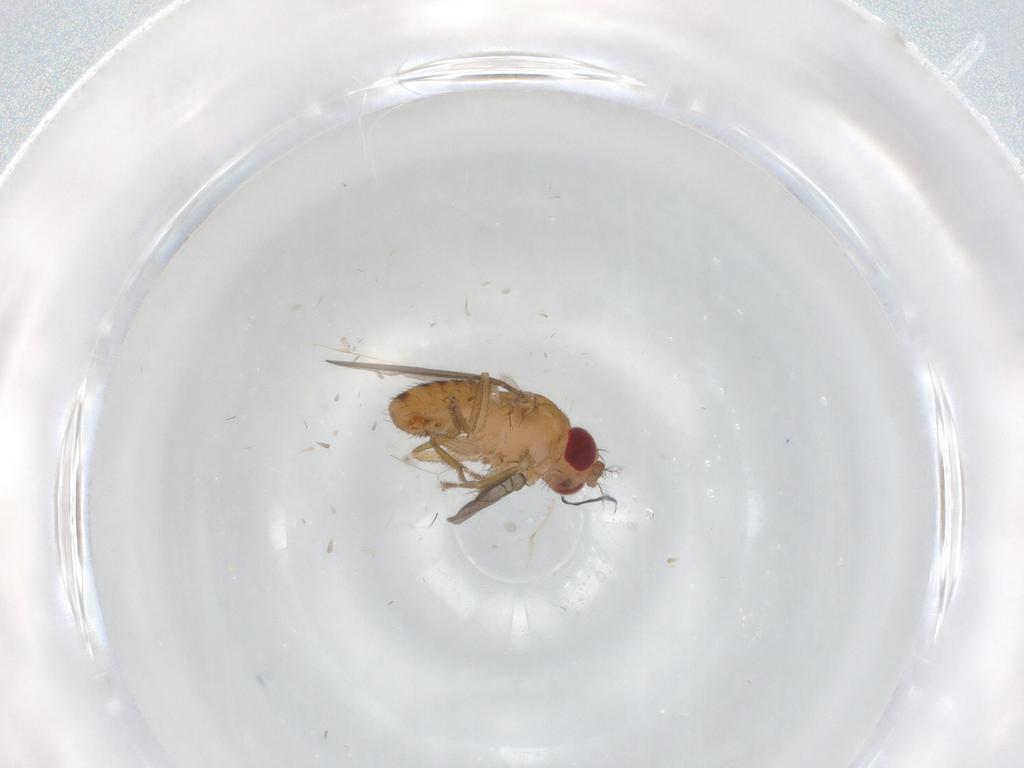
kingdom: Animalia
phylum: Arthropoda
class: Insecta
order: Diptera
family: Drosophilidae
